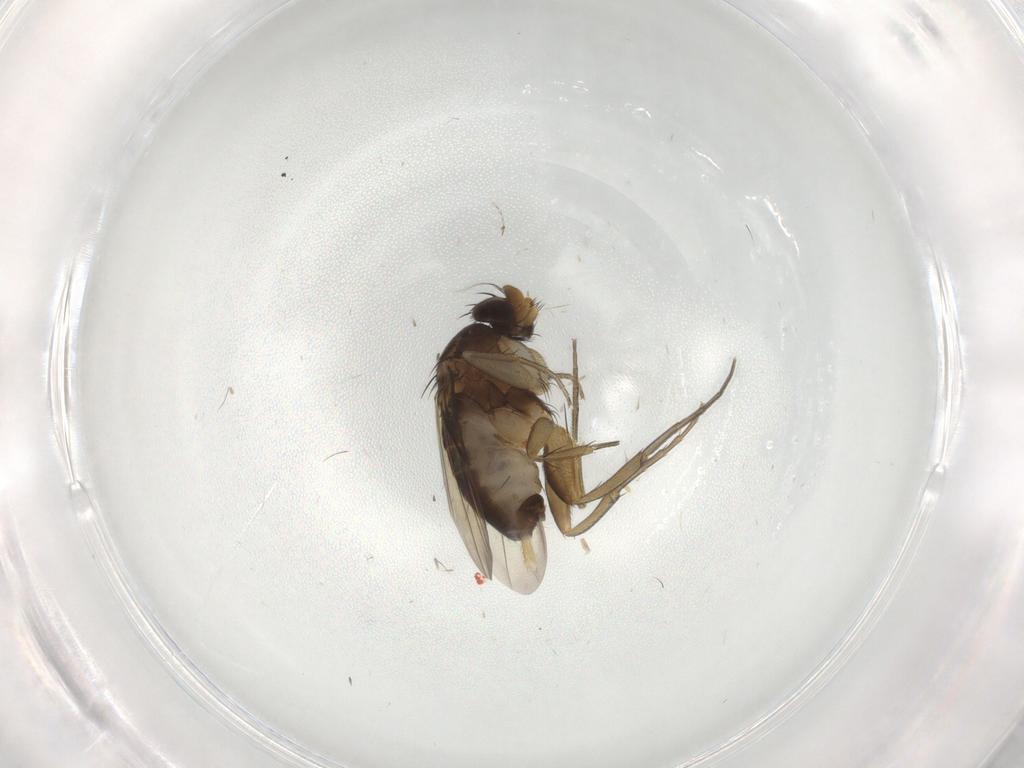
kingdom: Animalia
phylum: Arthropoda
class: Insecta
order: Diptera
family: Phoridae
